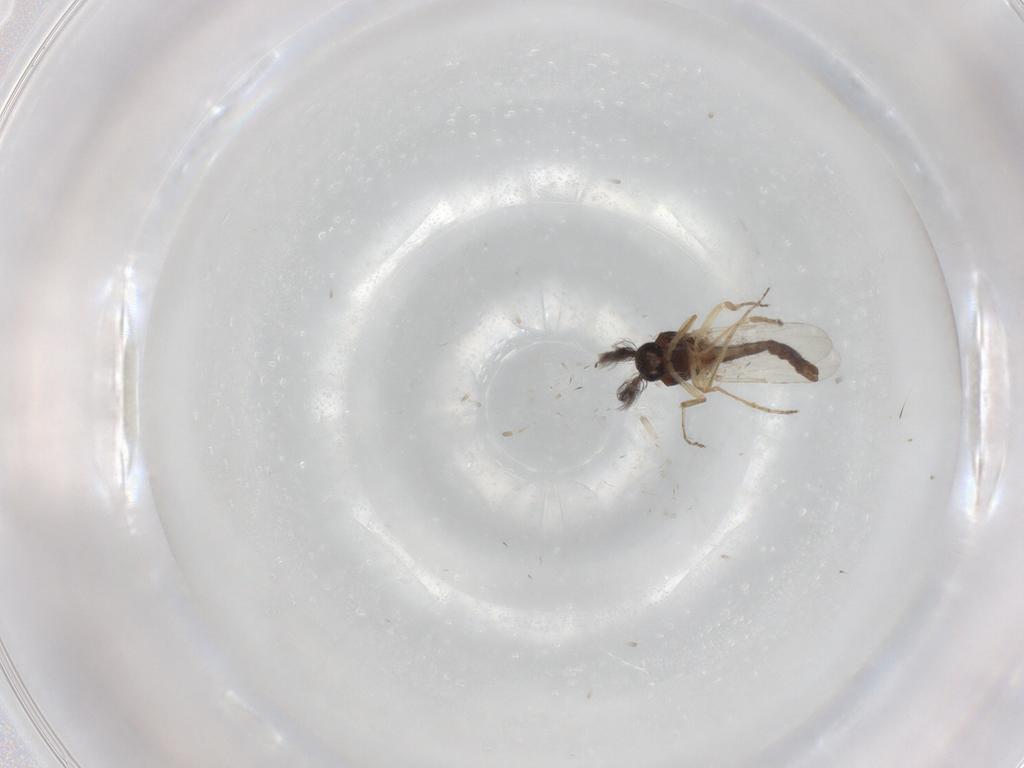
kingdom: Animalia
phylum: Arthropoda
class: Insecta
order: Diptera
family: Ceratopogonidae
